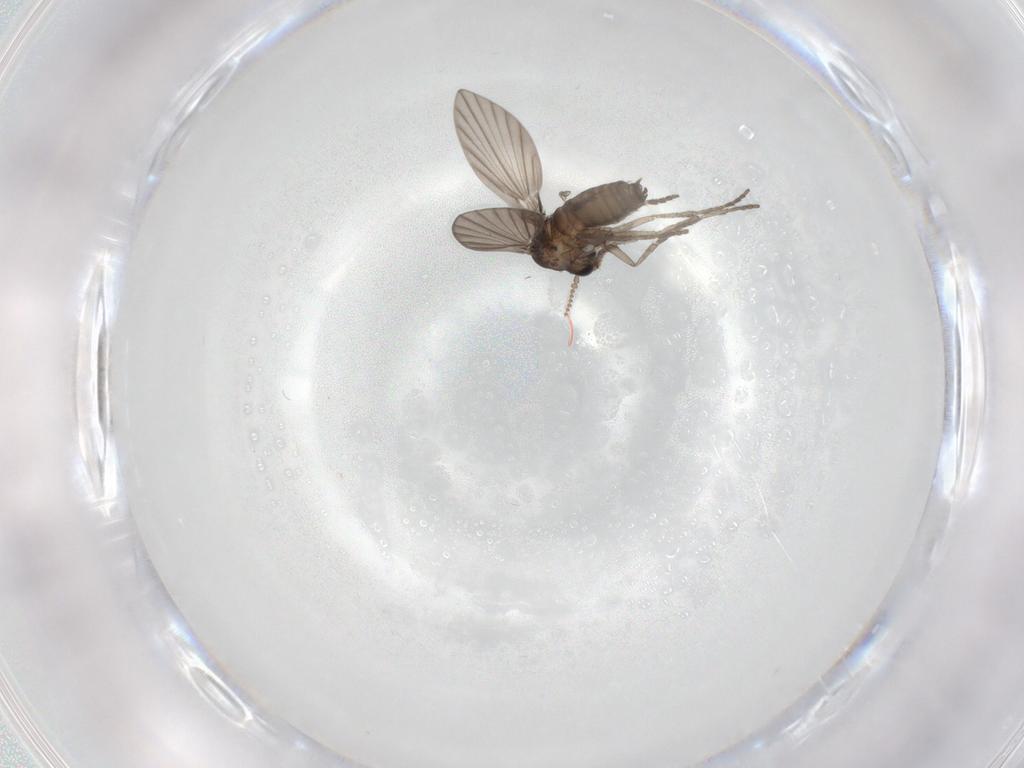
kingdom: Animalia
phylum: Arthropoda
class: Insecta
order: Diptera
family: Psychodidae
